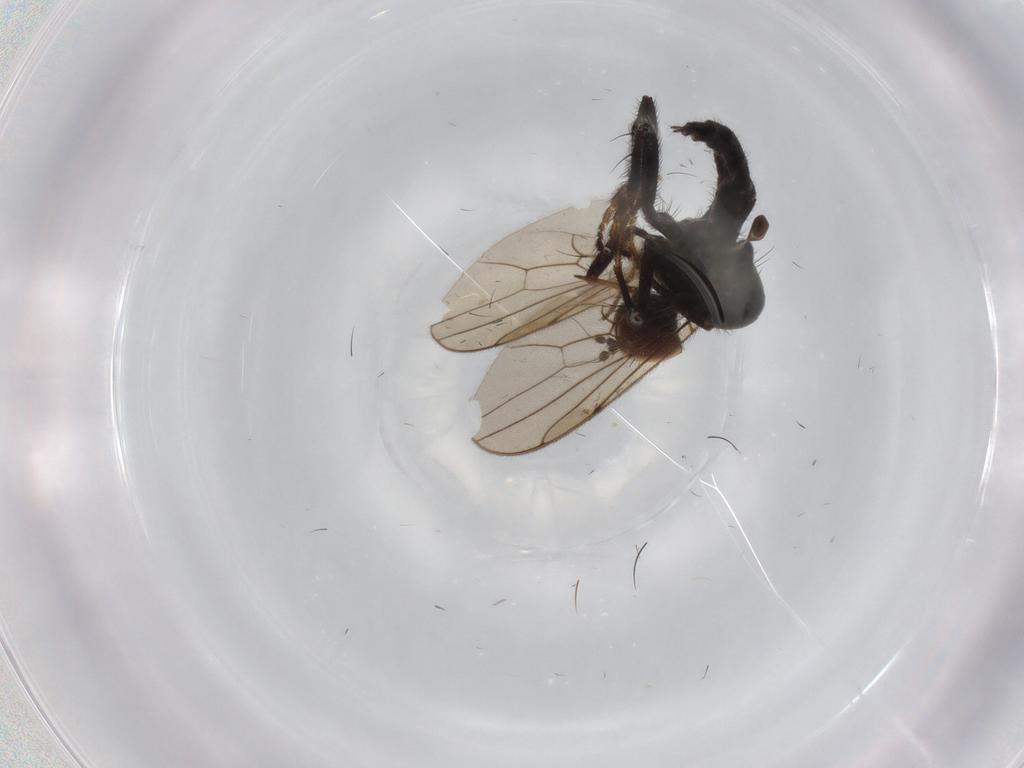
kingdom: Animalia
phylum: Arthropoda
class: Insecta
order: Diptera
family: Hybotidae
